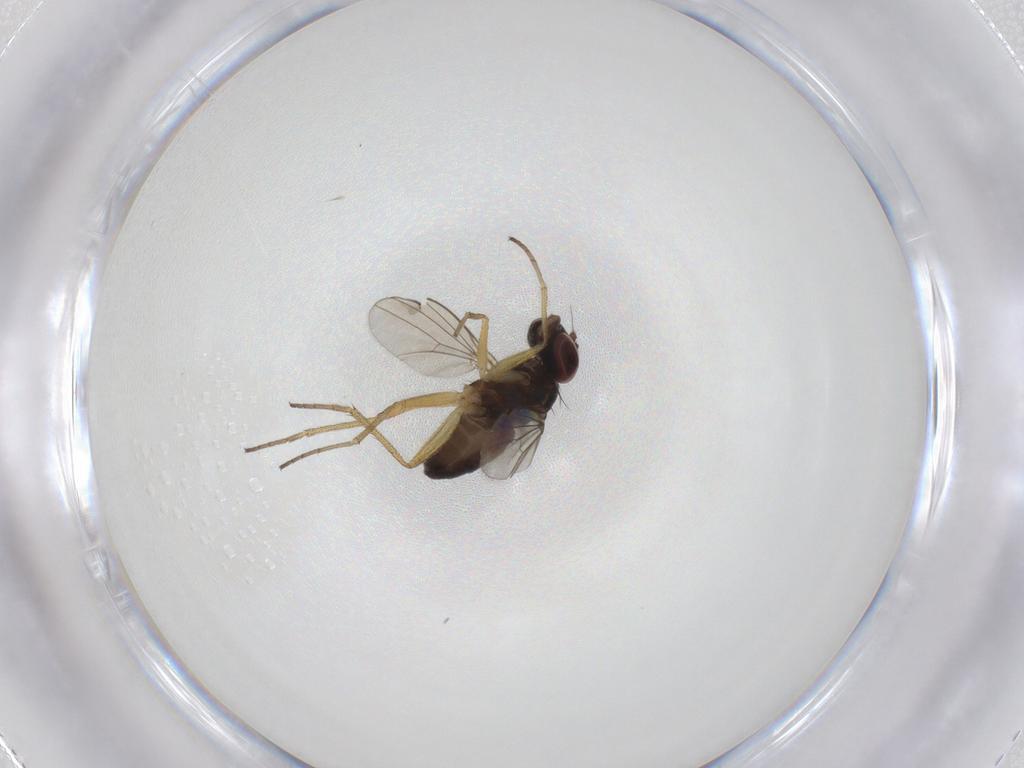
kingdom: Animalia
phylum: Arthropoda
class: Insecta
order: Diptera
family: Dolichopodidae
